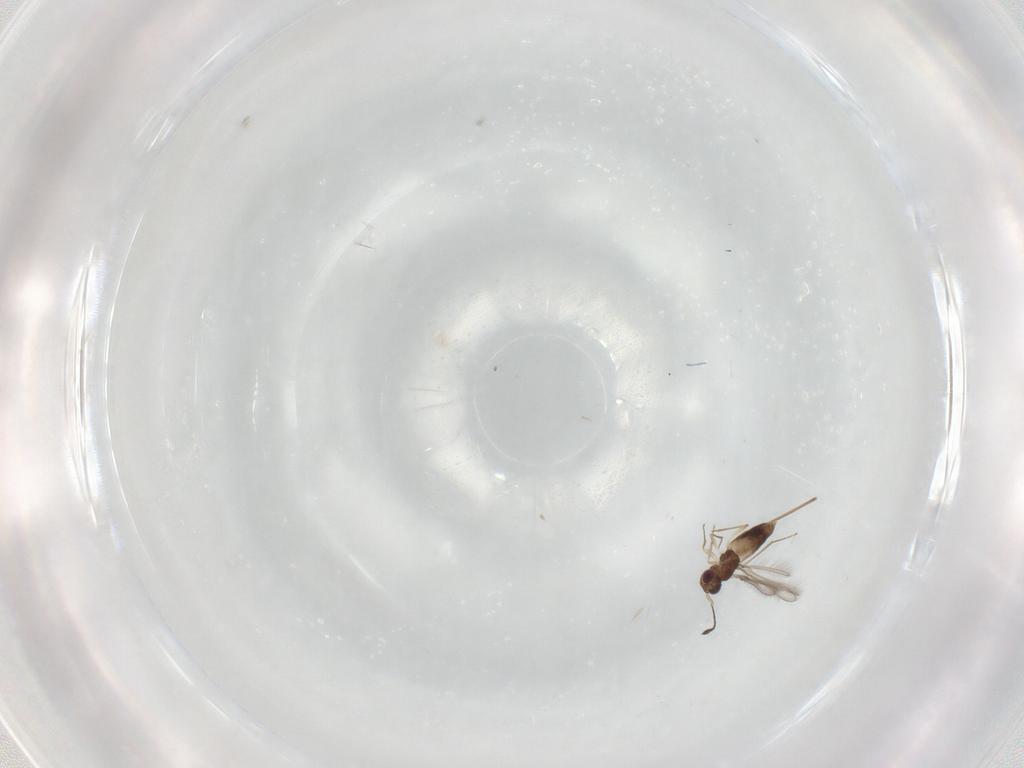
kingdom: Animalia
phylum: Arthropoda
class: Insecta
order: Hymenoptera
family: Mymaridae
